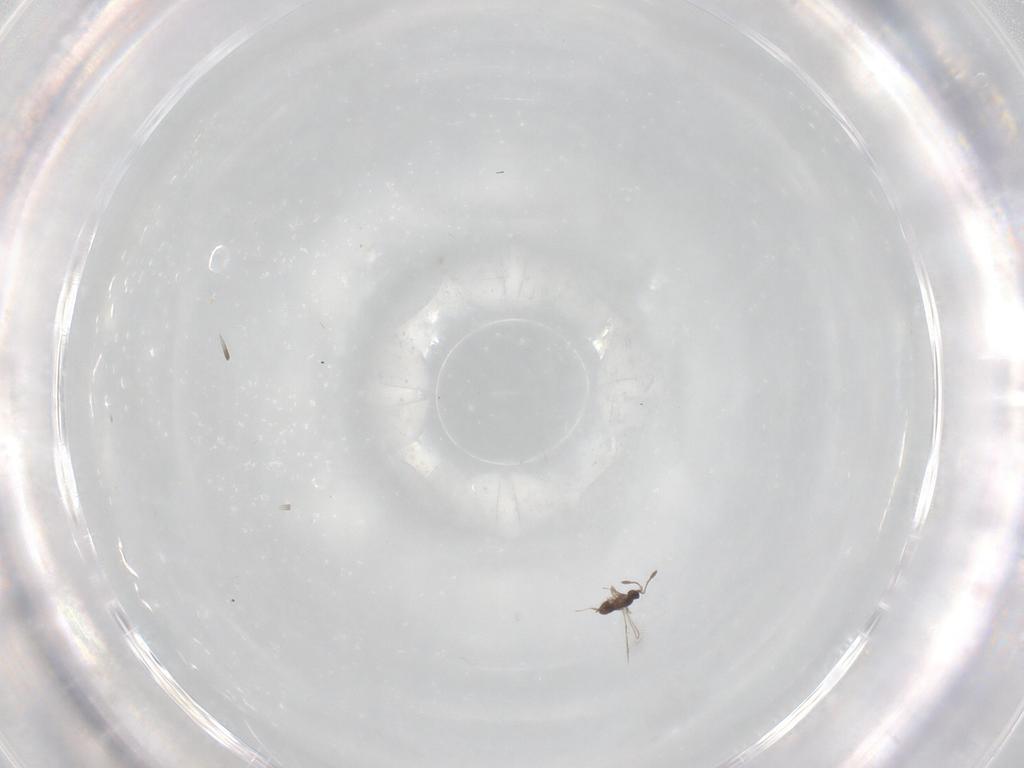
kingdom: Animalia
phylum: Arthropoda
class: Insecta
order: Hymenoptera
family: Mymaridae
